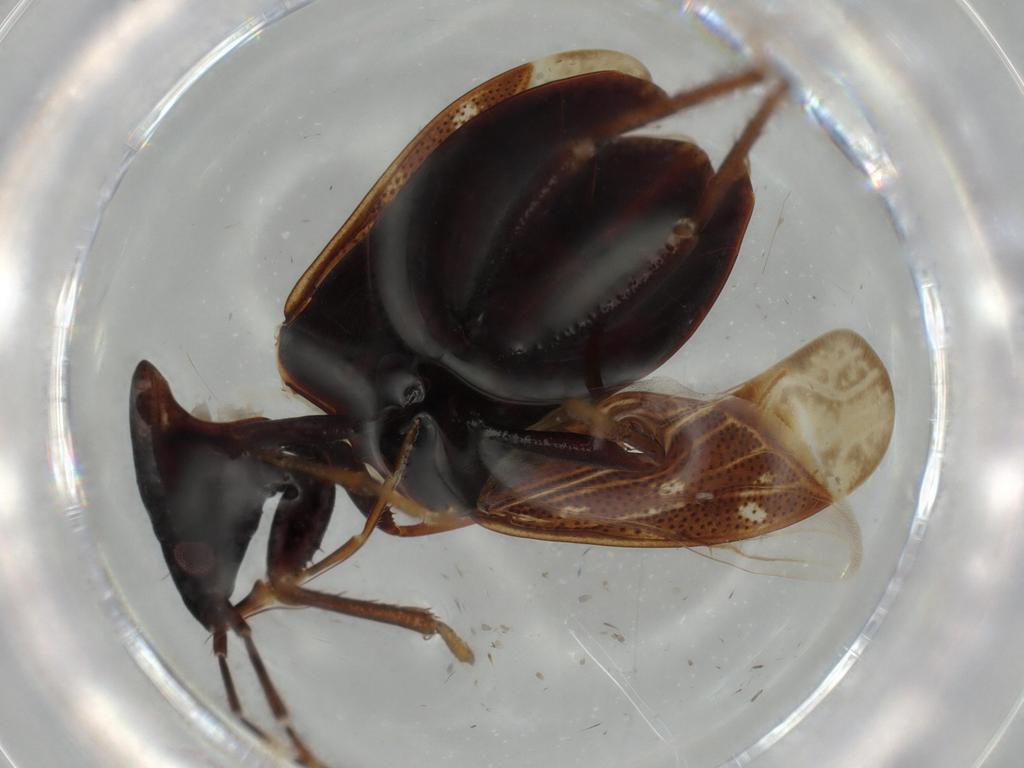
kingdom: Animalia
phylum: Arthropoda
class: Insecta
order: Hemiptera
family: Rhyparochromidae
